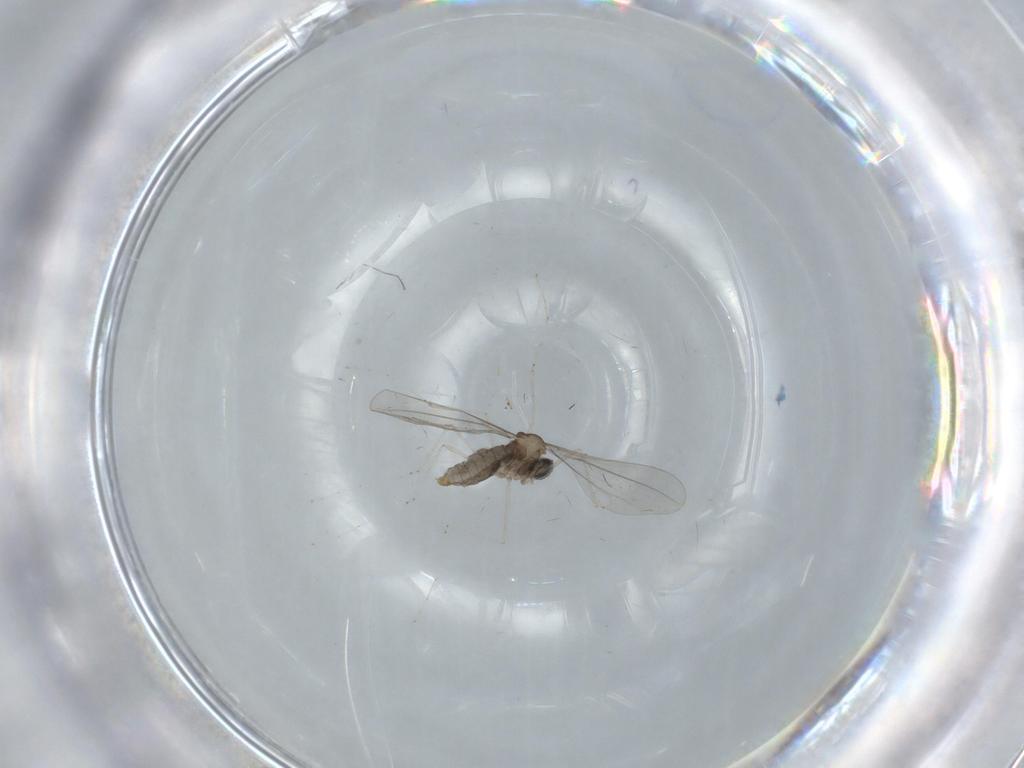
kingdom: Animalia
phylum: Arthropoda
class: Insecta
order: Diptera
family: Cecidomyiidae
